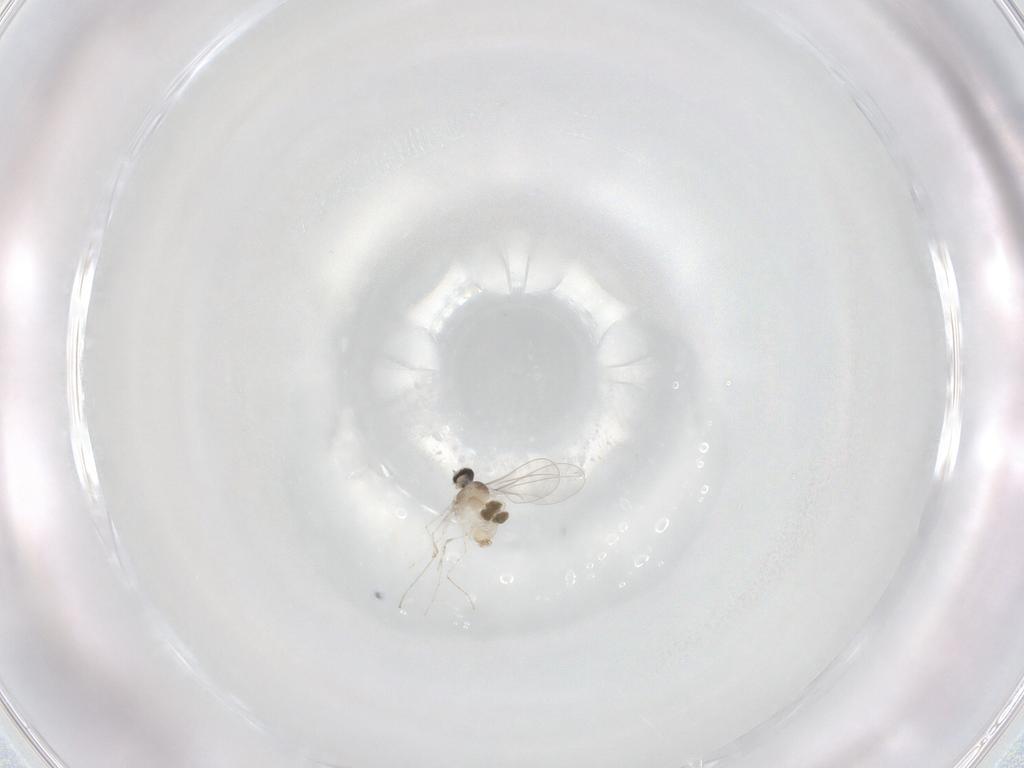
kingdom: Animalia
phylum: Arthropoda
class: Insecta
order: Diptera
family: Cecidomyiidae
